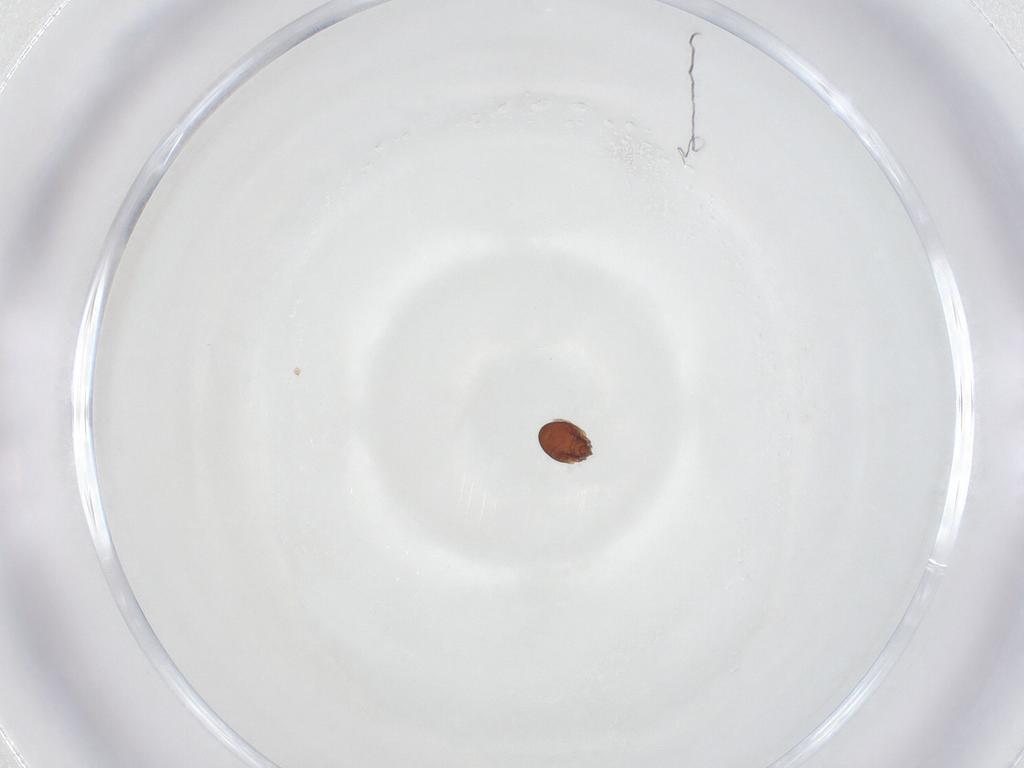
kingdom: Animalia
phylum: Arthropoda
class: Arachnida
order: Sarcoptiformes
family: Scheloribatidae
